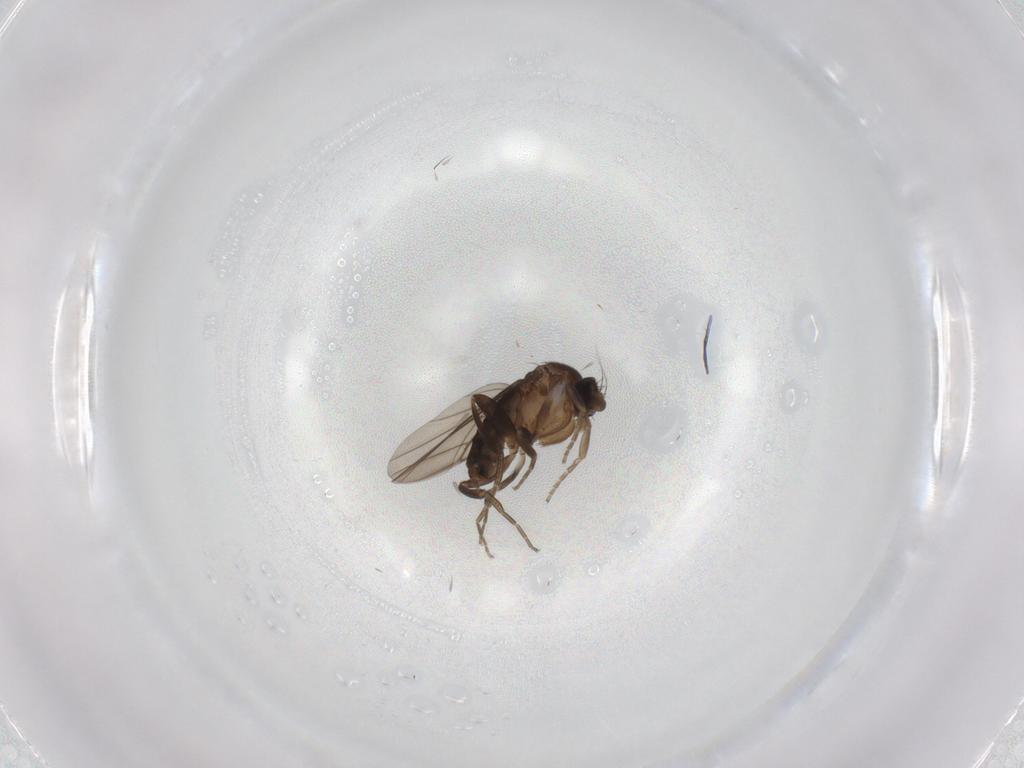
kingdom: Animalia
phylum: Arthropoda
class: Insecta
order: Diptera
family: Phoridae
